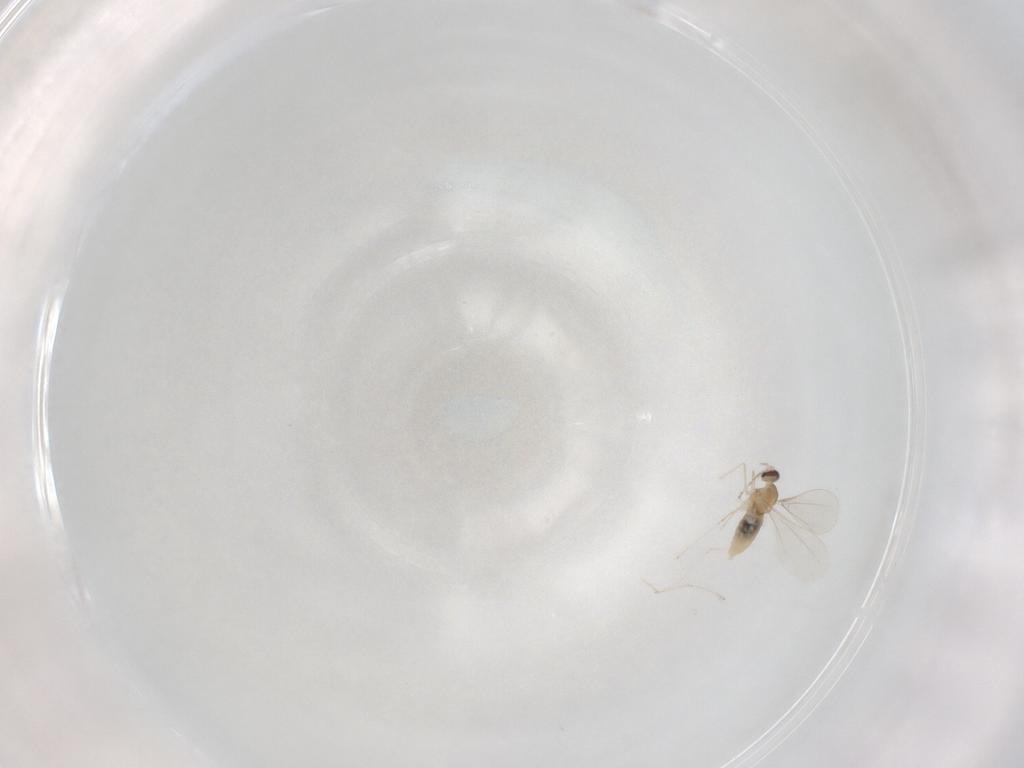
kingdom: Animalia
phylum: Arthropoda
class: Insecta
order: Diptera
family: Cecidomyiidae
